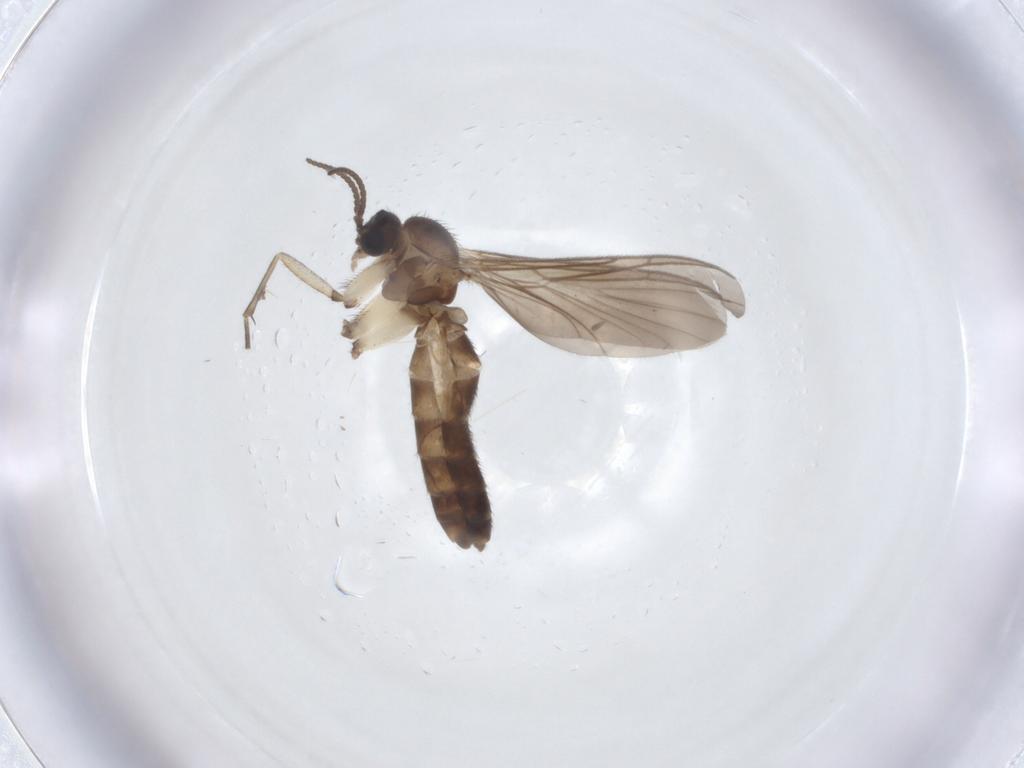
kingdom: Animalia
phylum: Arthropoda
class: Insecta
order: Diptera
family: Keroplatidae
